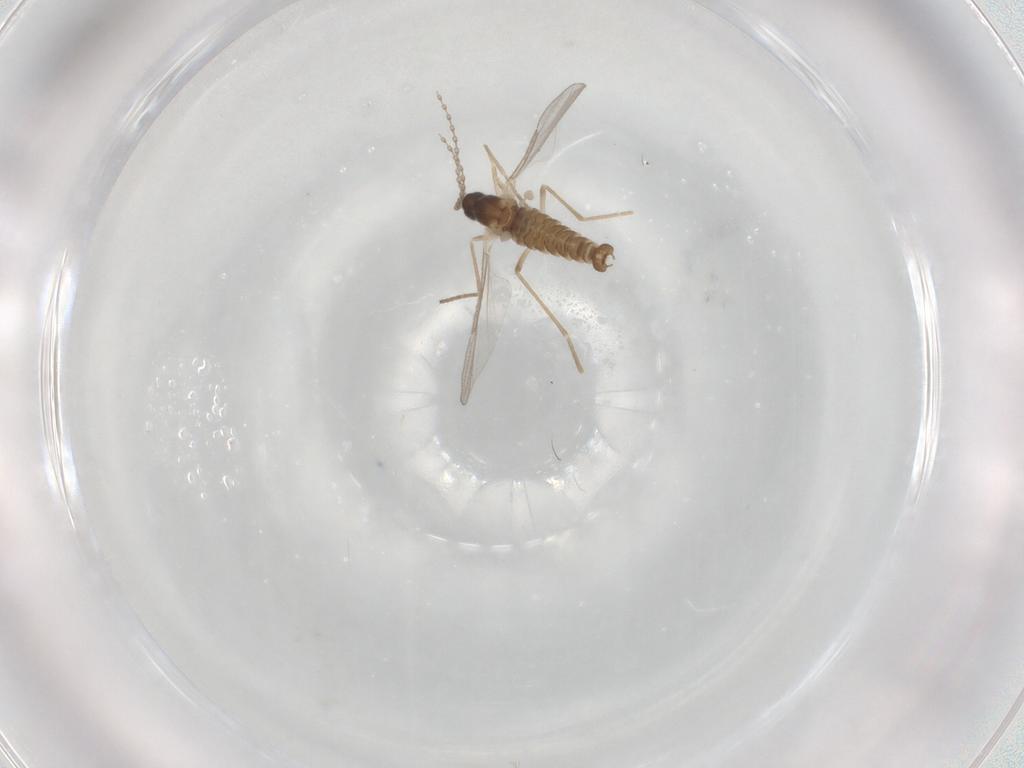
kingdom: Animalia
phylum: Arthropoda
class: Insecta
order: Diptera
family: Cecidomyiidae
